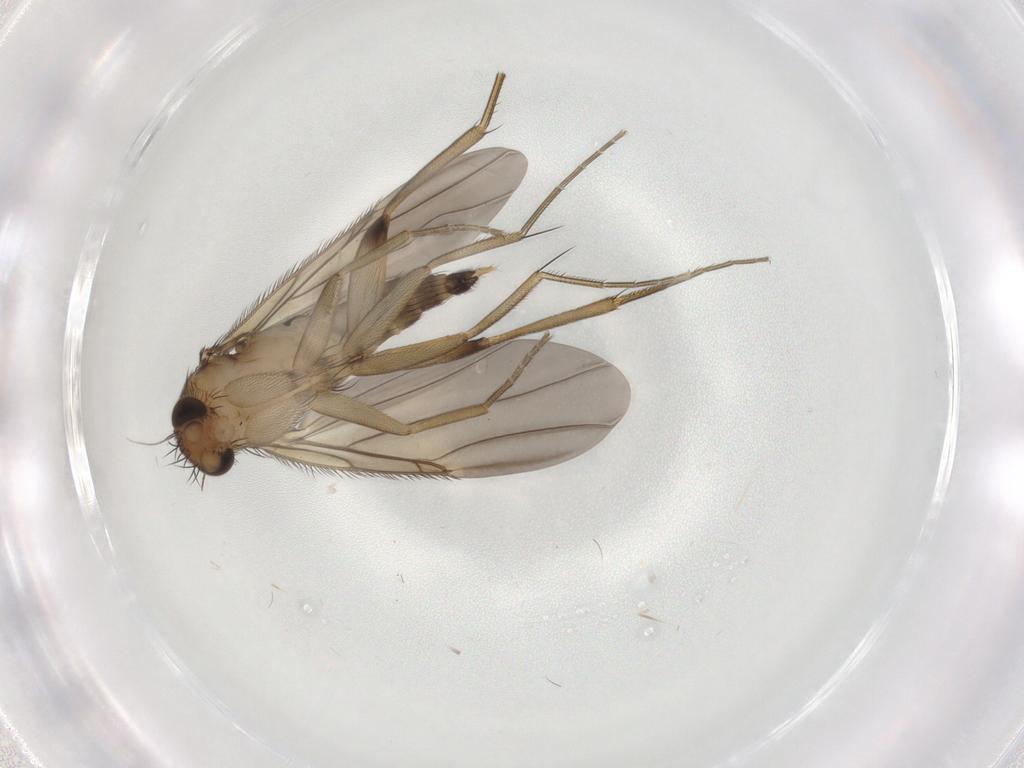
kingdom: Animalia
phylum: Arthropoda
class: Insecta
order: Diptera
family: Phoridae
